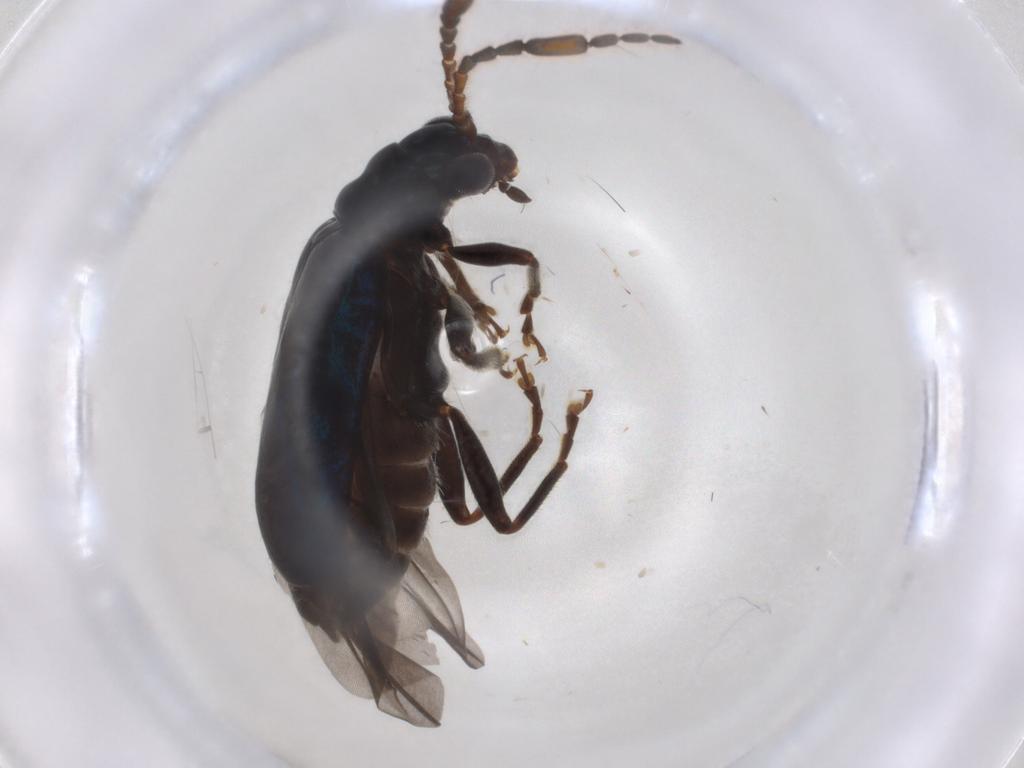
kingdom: Animalia
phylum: Arthropoda
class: Insecta
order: Coleoptera
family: Chrysomelidae
